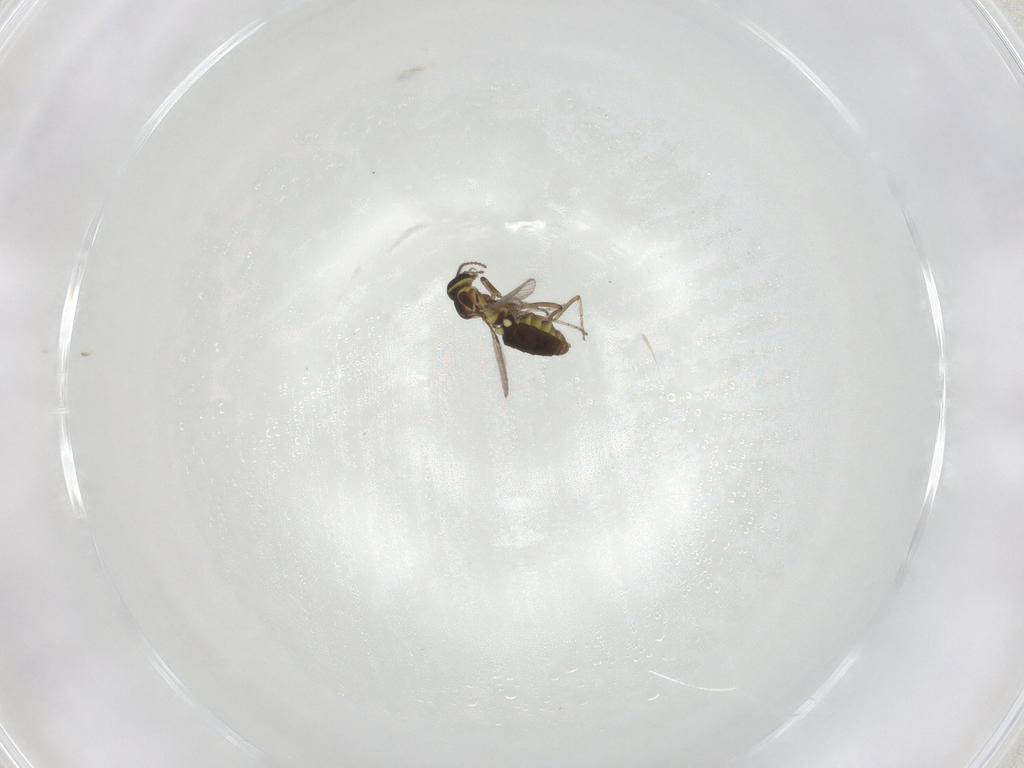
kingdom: Animalia
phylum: Arthropoda
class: Insecta
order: Diptera
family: Ceratopogonidae
